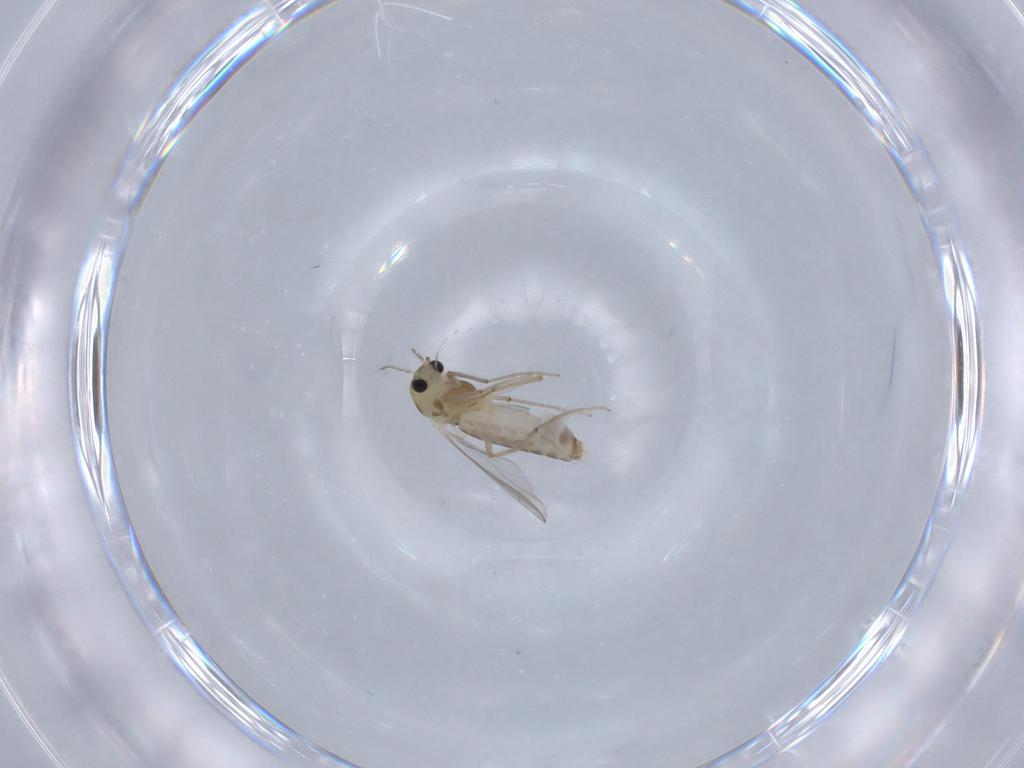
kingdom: Animalia
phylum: Arthropoda
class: Insecta
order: Diptera
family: Chironomidae
